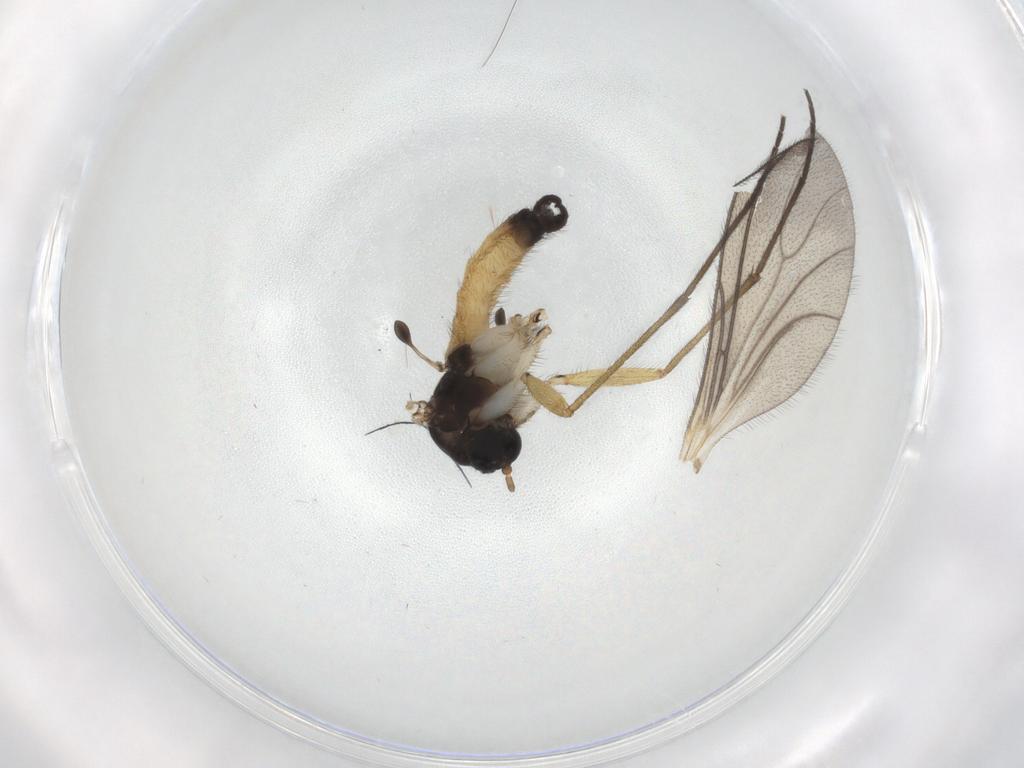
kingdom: Animalia
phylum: Arthropoda
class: Insecta
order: Diptera
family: Sciaridae
